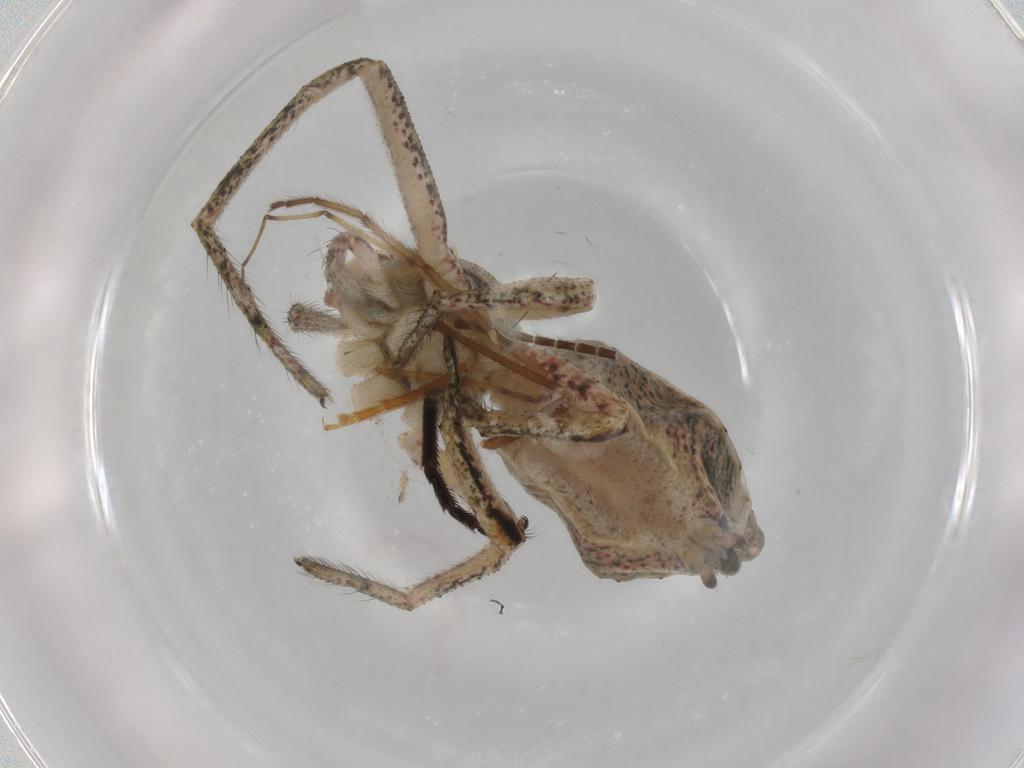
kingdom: Animalia
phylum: Arthropoda
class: Arachnida
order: Araneae
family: Thomisidae
